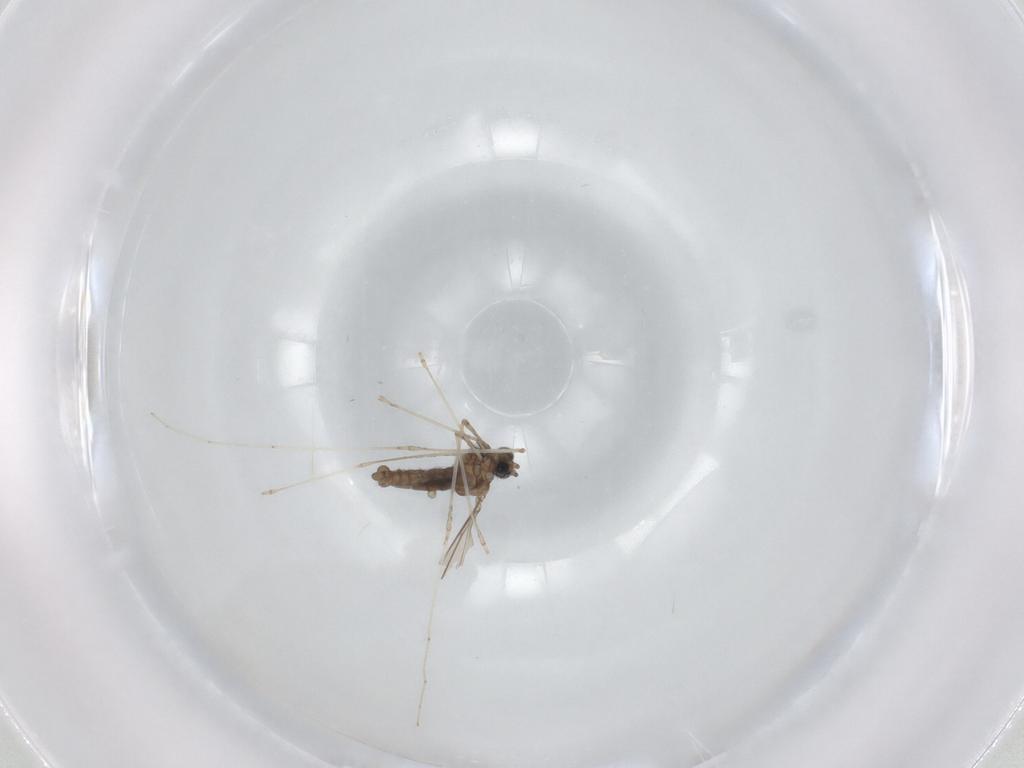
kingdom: Animalia
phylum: Arthropoda
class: Insecta
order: Diptera
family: Cecidomyiidae
